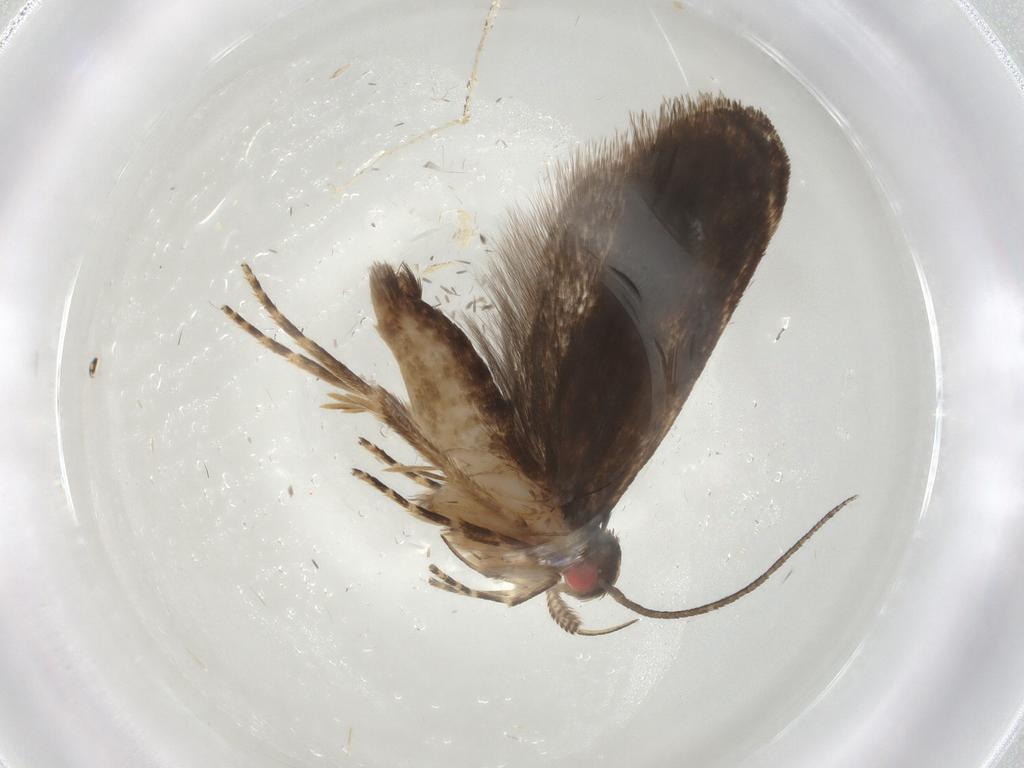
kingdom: Animalia
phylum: Arthropoda
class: Insecta
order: Lepidoptera
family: Gelechiidae
